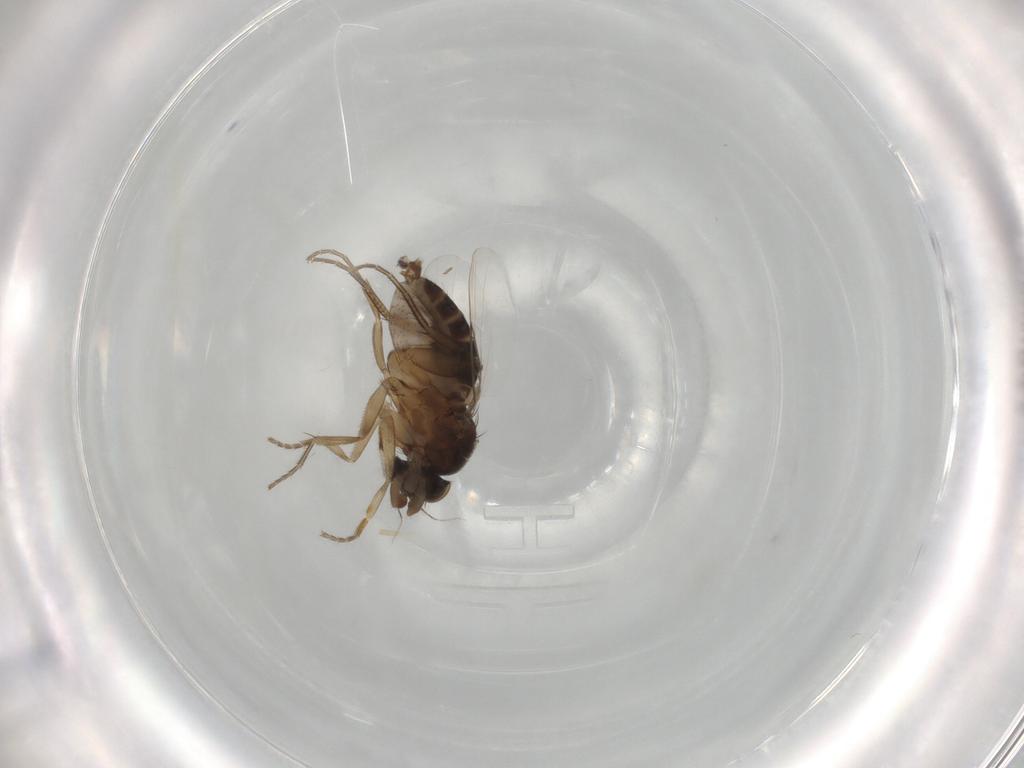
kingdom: Animalia
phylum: Arthropoda
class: Insecta
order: Diptera
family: Phoridae
